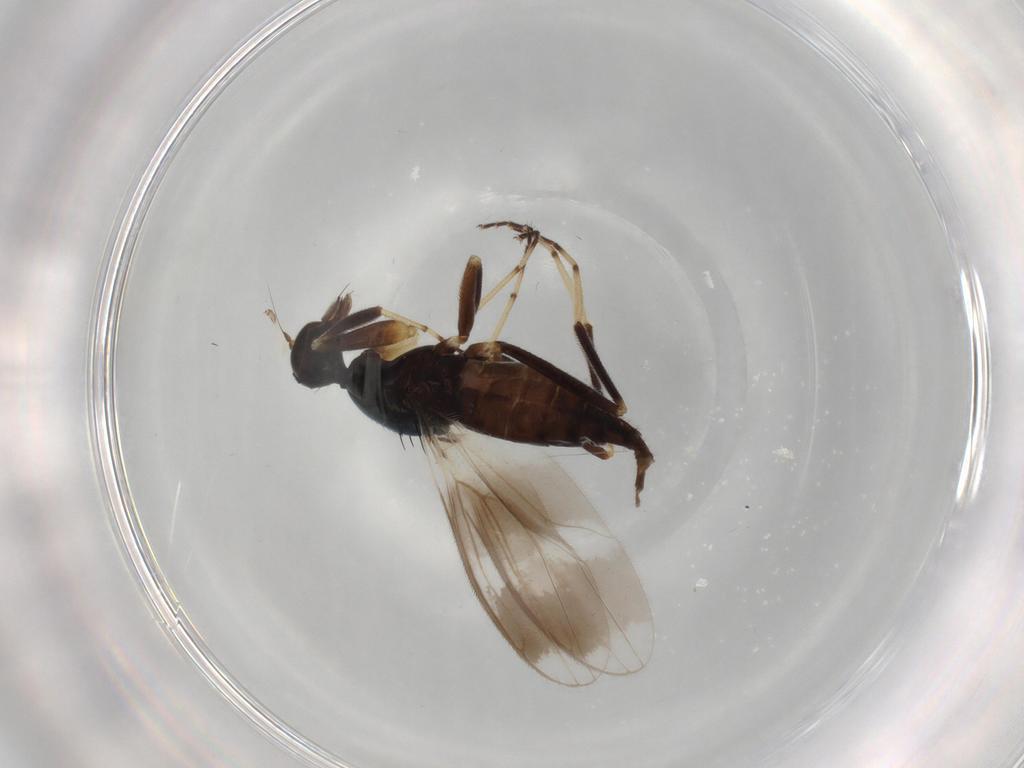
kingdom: Animalia
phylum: Arthropoda
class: Insecta
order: Diptera
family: Hybotidae
